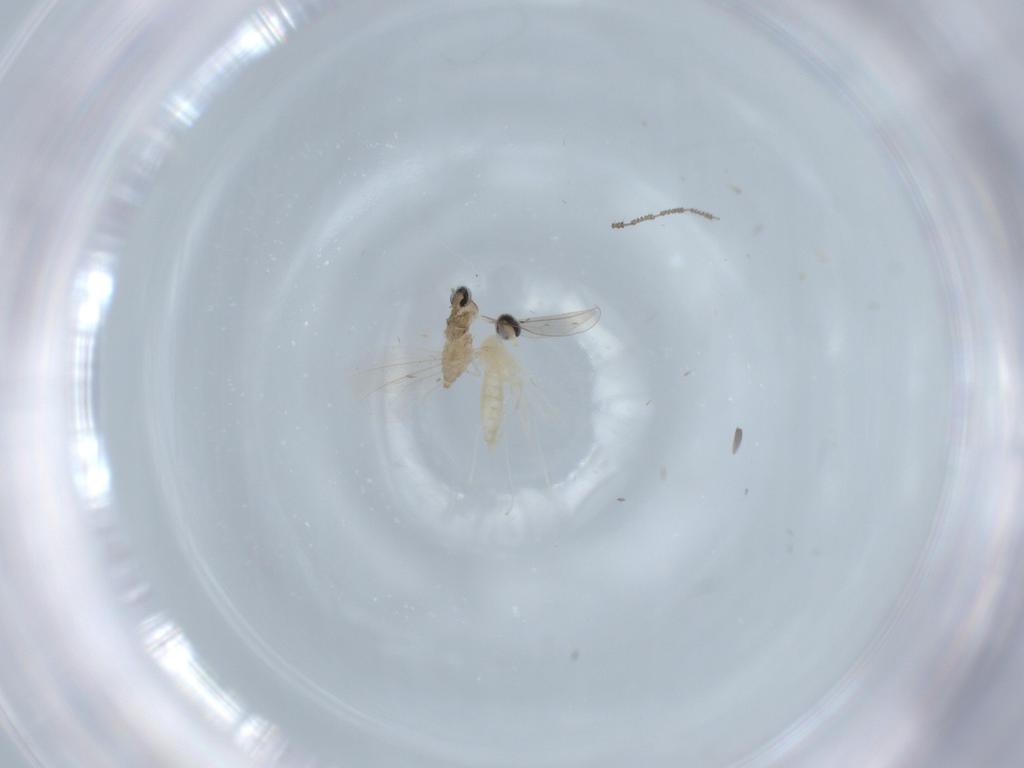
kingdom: Animalia
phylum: Arthropoda
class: Insecta
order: Diptera
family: Cecidomyiidae
